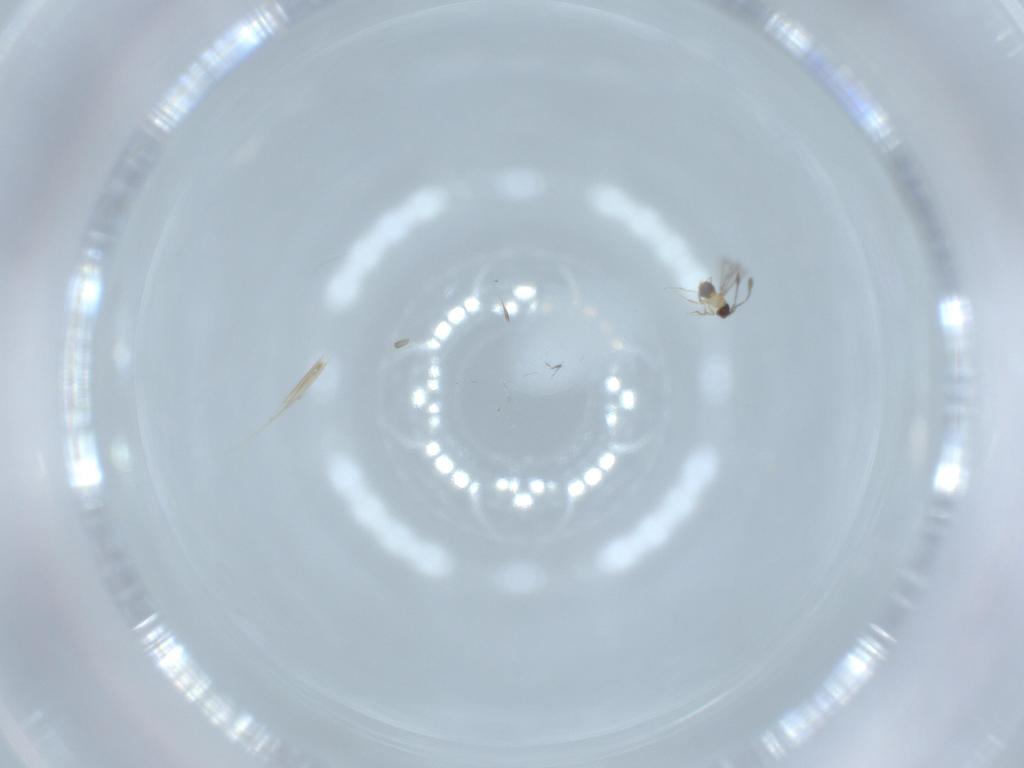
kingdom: Animalia
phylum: Arthropoda
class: Insecta
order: Hymenoptera
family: Mymaridae
